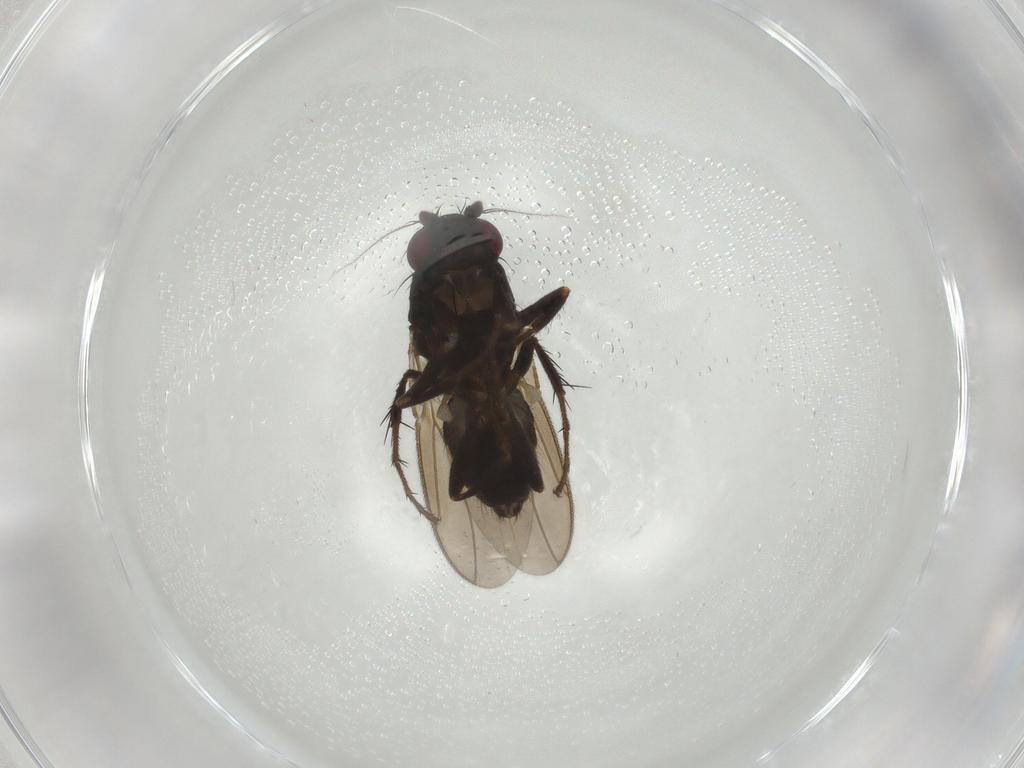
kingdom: Animalia
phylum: Arthropoda
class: Insecta
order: Diptera
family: Sphaeroceridae
